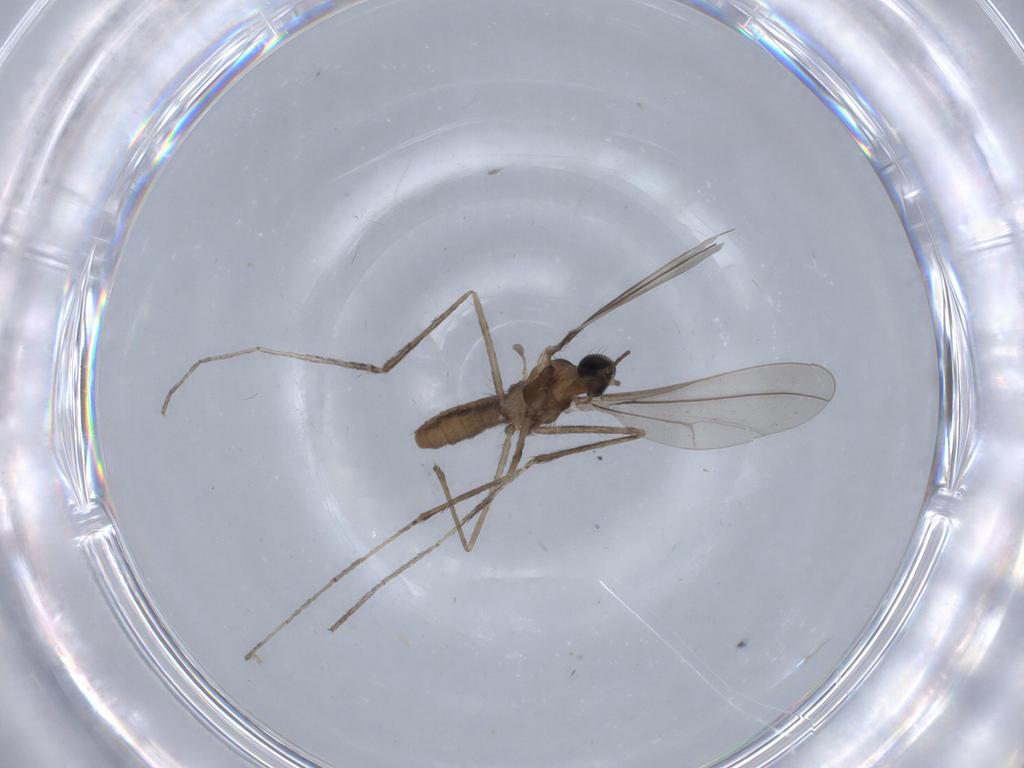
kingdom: Animalia
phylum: Arthropoda
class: Insecta
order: Diptera
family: Cecidomyiidae
